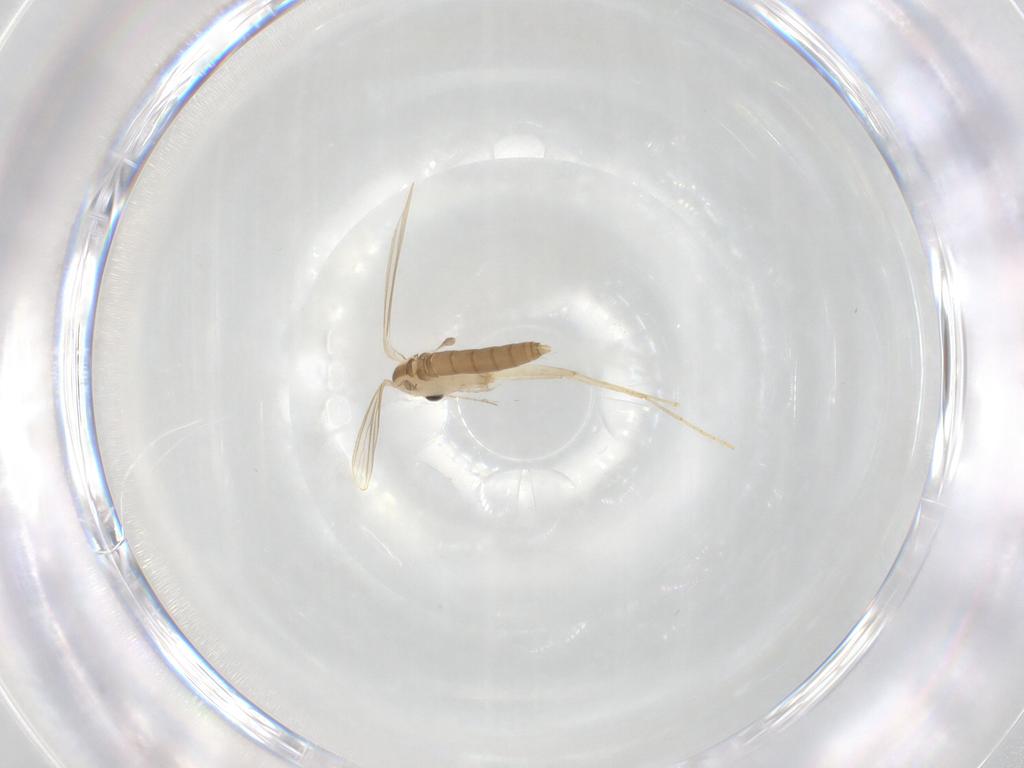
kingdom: Animalia
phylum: Arthropoda
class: Insecta
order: Diptera
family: Psychodidae
